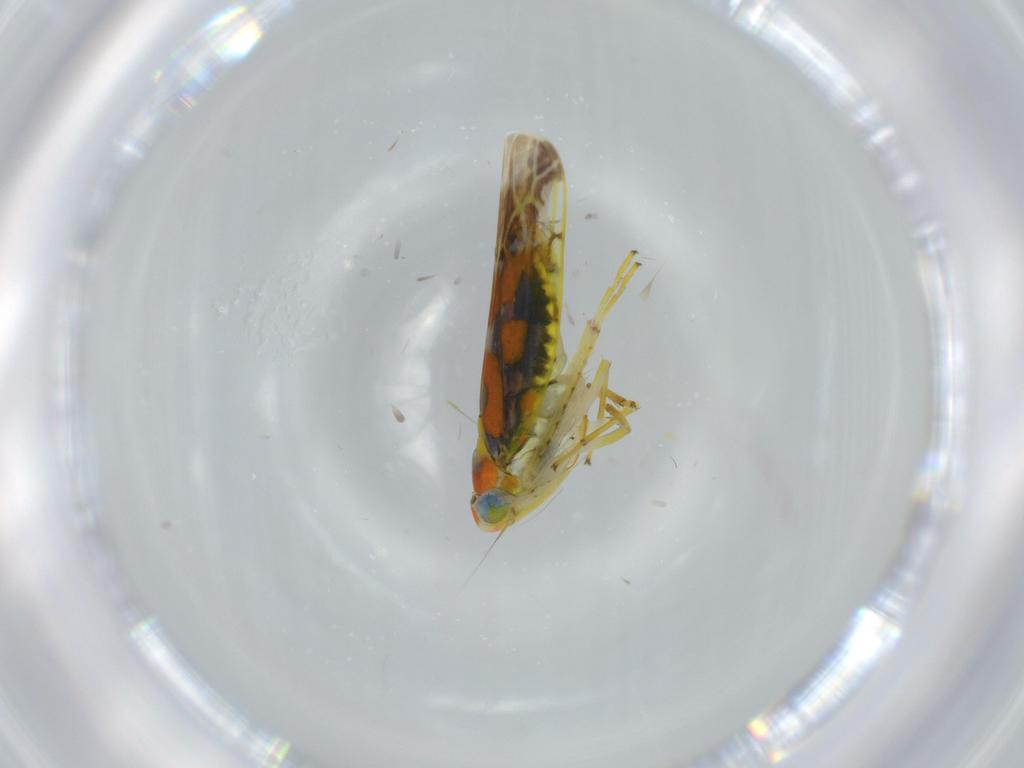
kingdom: Animalia
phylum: Arthropoda
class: Insecta
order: Hemiptera
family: Cicadellidae
